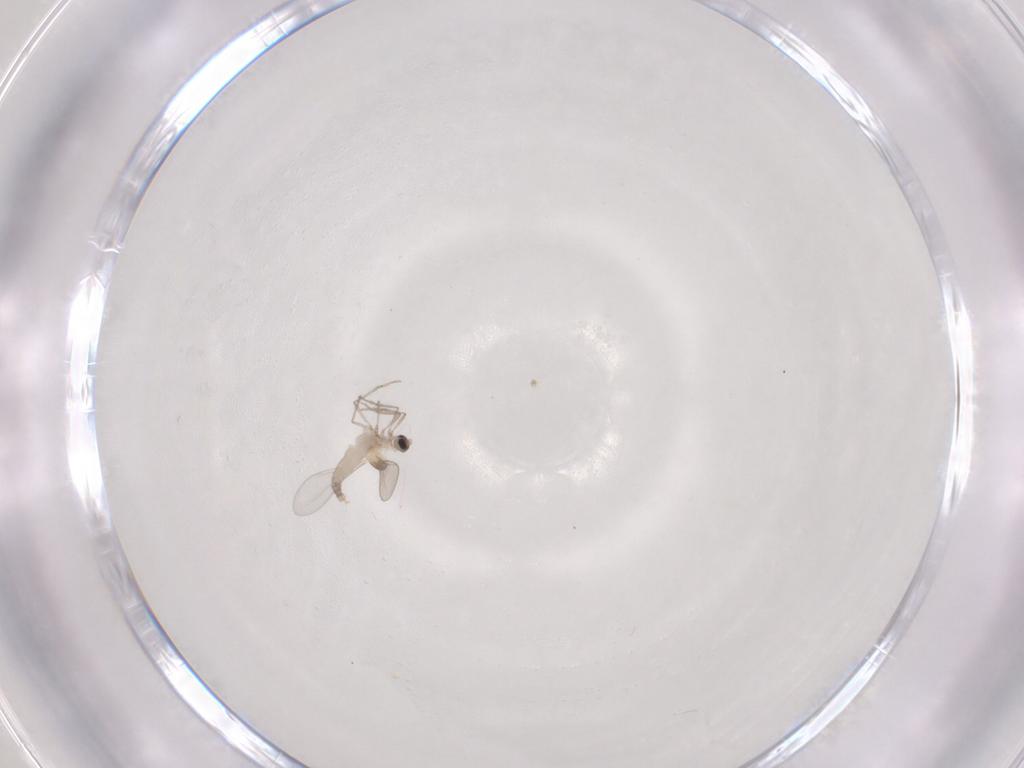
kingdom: Animalia
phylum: Arthropoda
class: Insecta
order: Diptera
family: Cecidomyiidae
